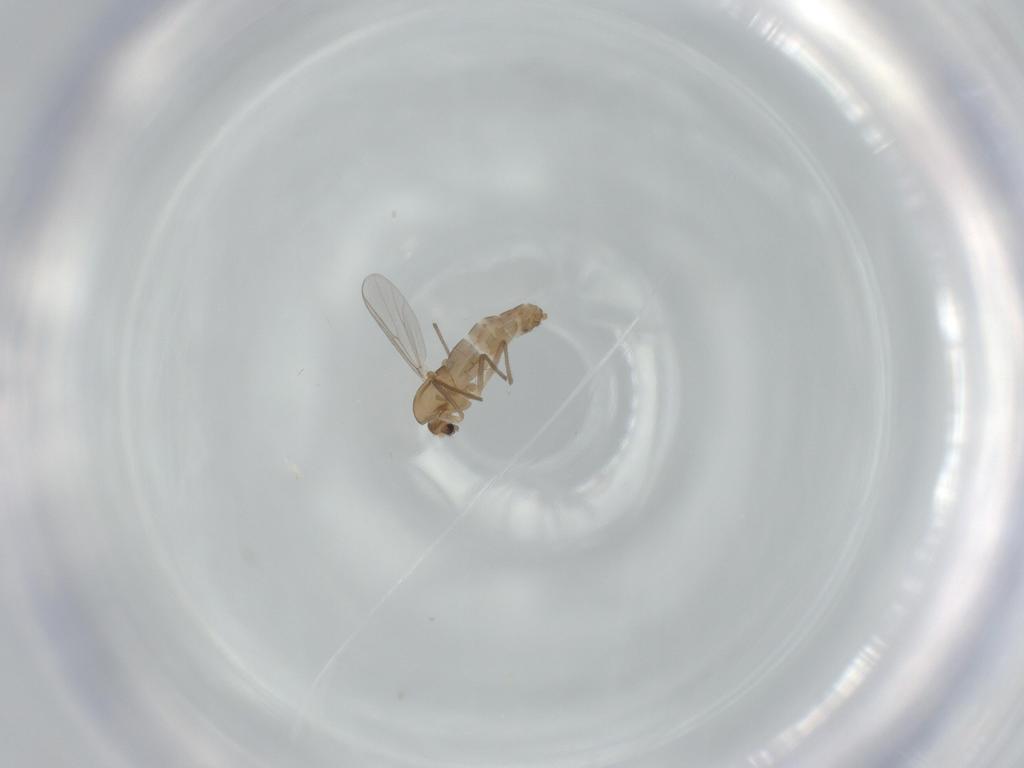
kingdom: Animalia
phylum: Arthropoda
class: Insecta
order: Diptera
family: Chironomidae
